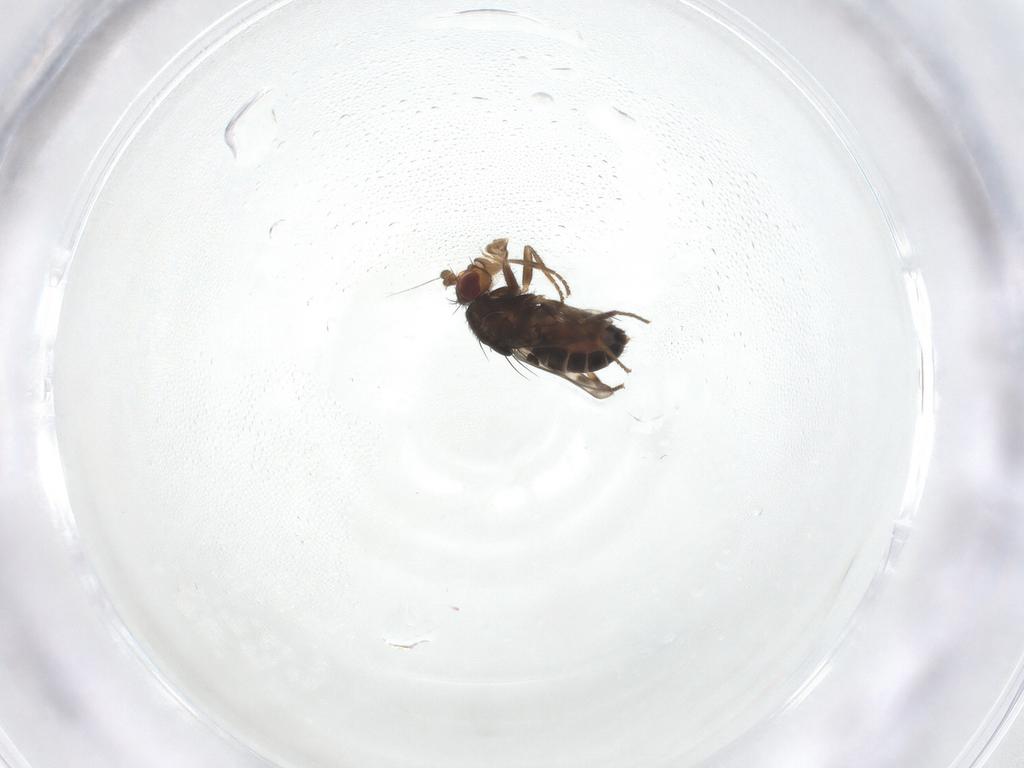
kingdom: Animalia
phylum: Arthropoda
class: Insecta
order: Diptera
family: Sphaeroceridae
